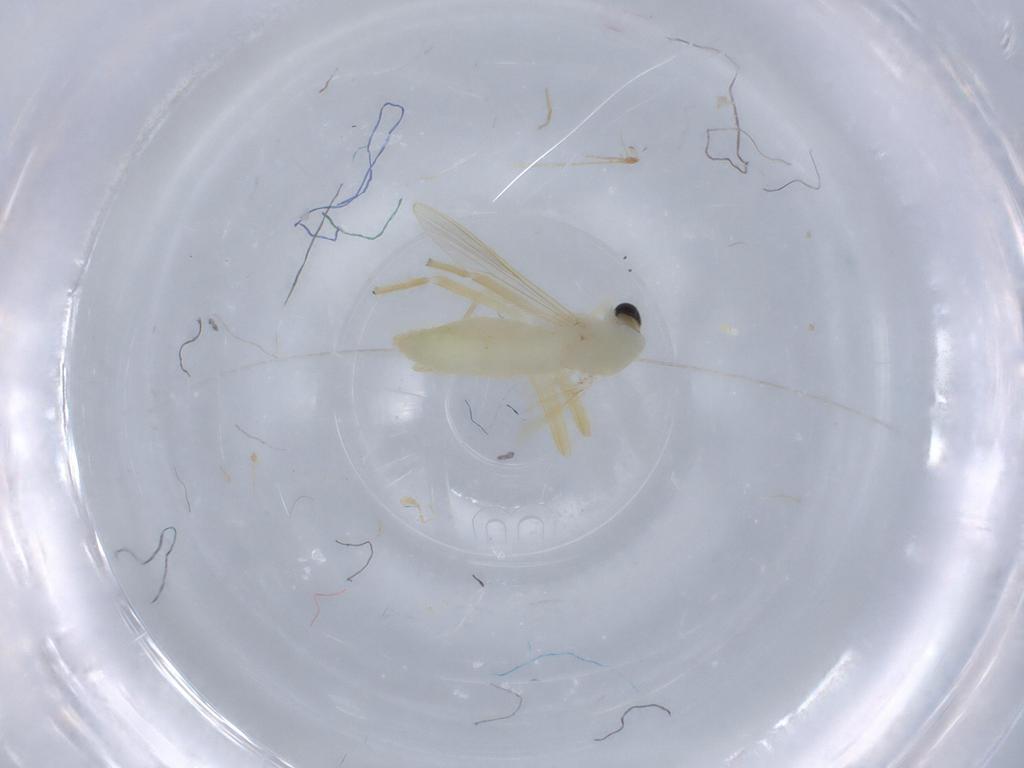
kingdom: Animalia
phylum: Arthropoda
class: Insecta
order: Diptera
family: Chironomidae
